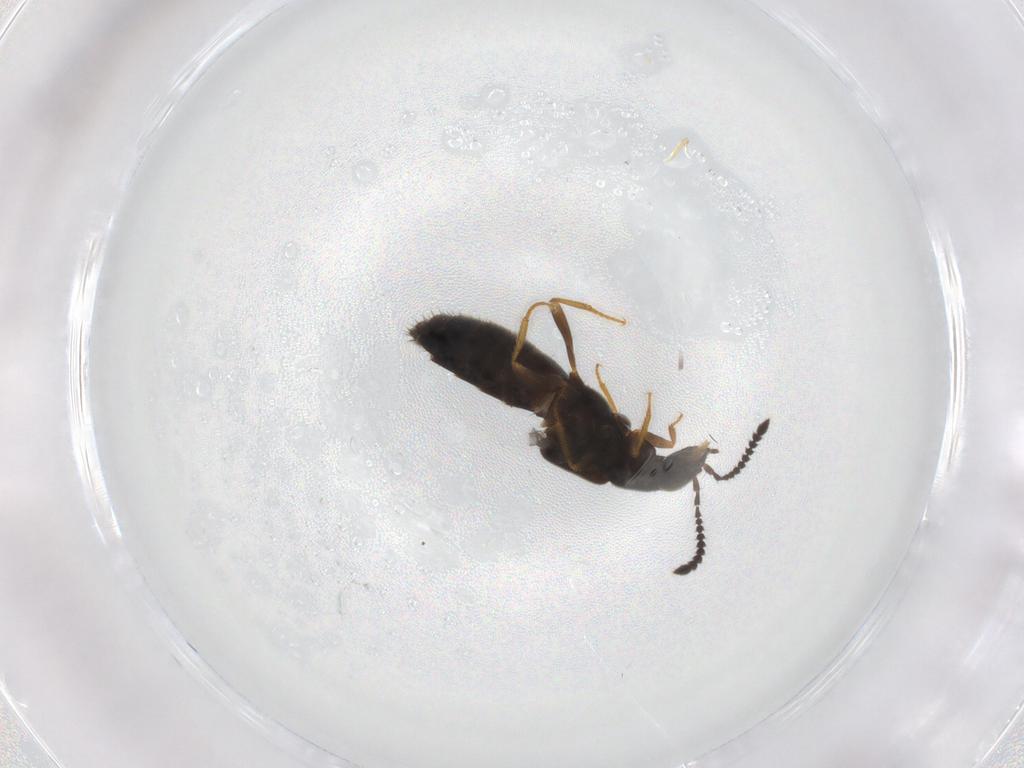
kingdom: Animalia
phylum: Arthropoda
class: Insecta
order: Coleoptera
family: Staphylinidae
